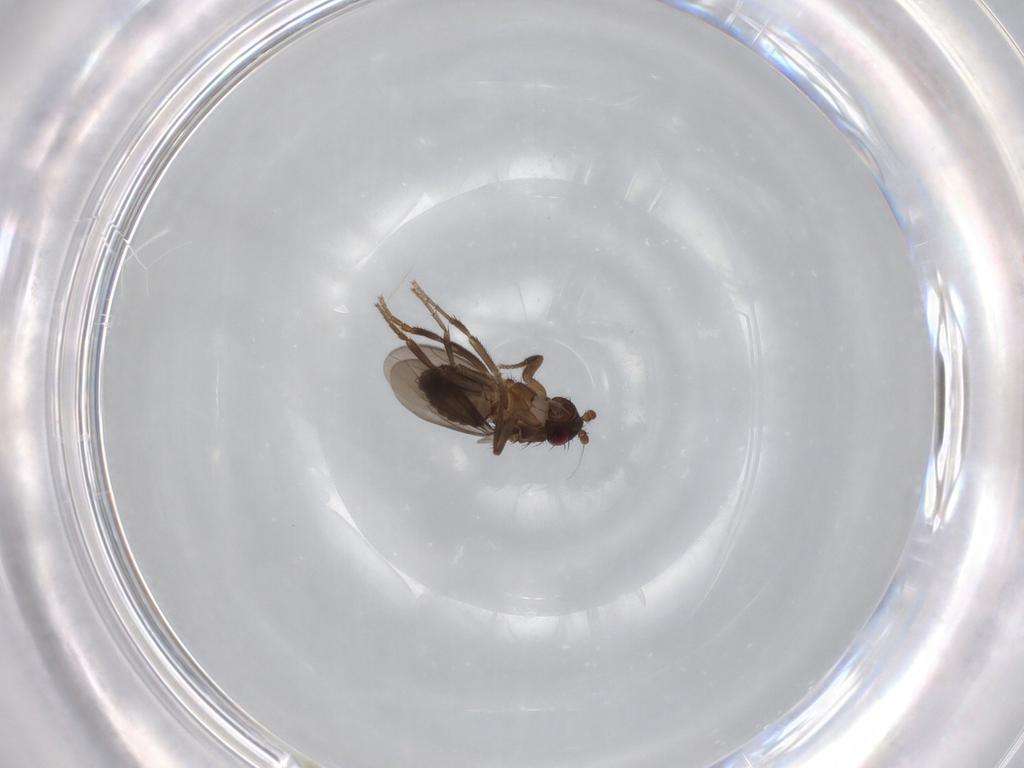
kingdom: Animalia
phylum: Arthropoda
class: Insecta
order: Diptera
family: Sphaeroceridae
